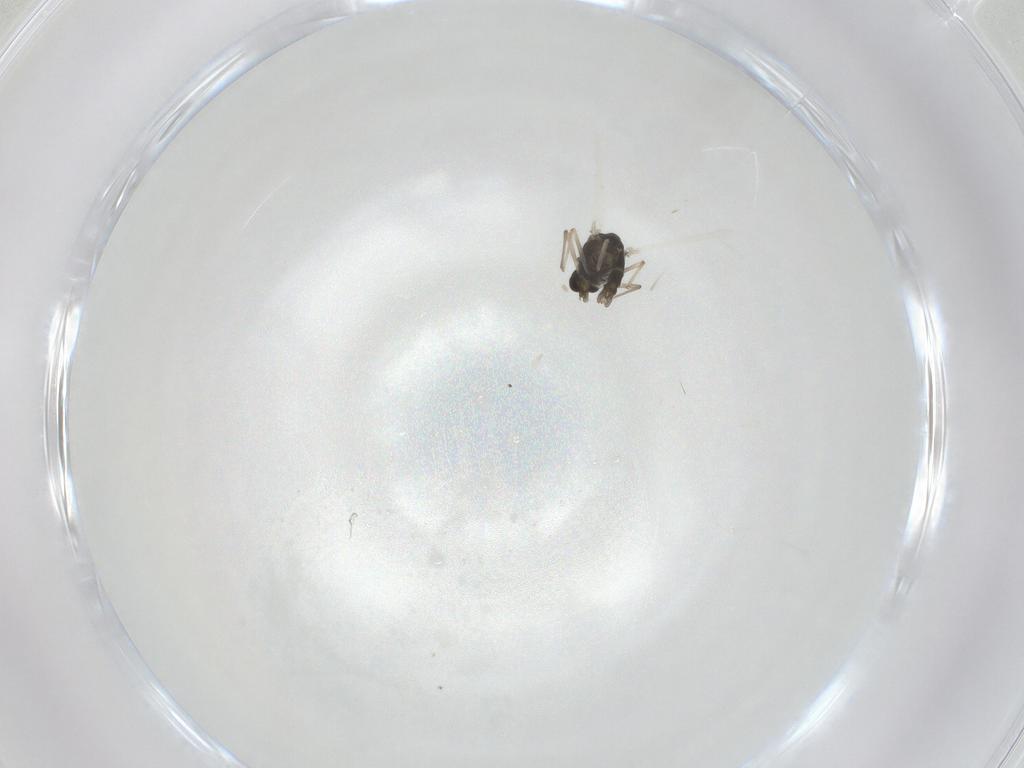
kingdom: Animalia
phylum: Arthropoda
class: Insecta
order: Diptera
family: Chironomidae
